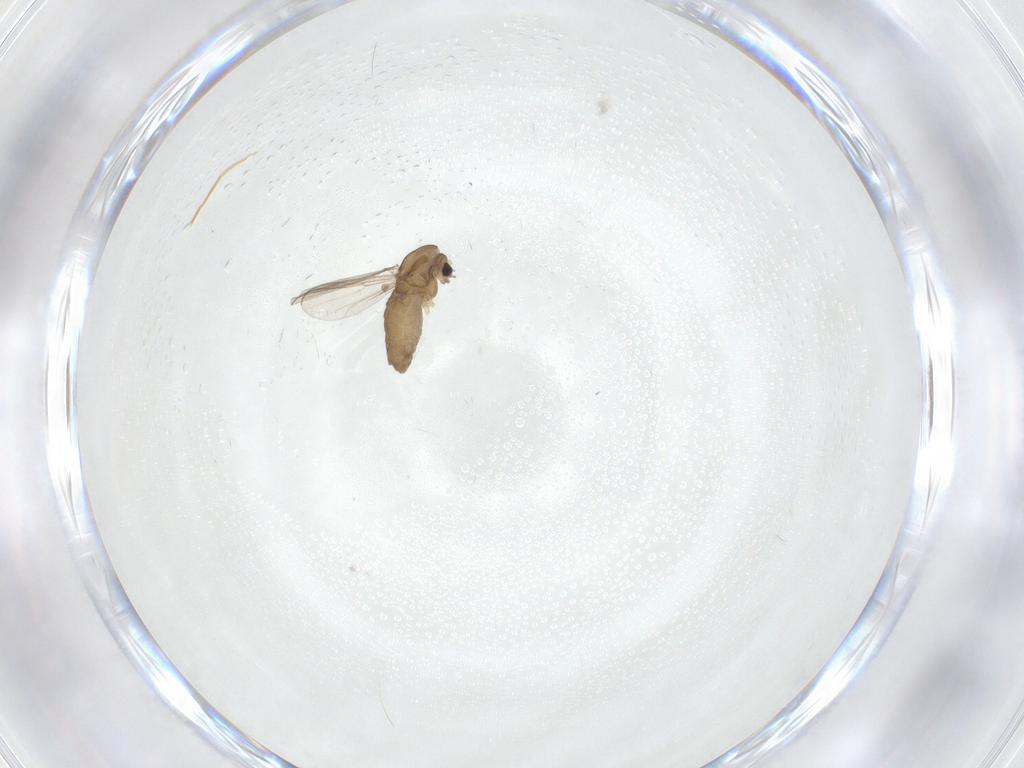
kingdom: Animalia
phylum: Arthropoda
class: Insecta
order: Diptera
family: Chironomidae
